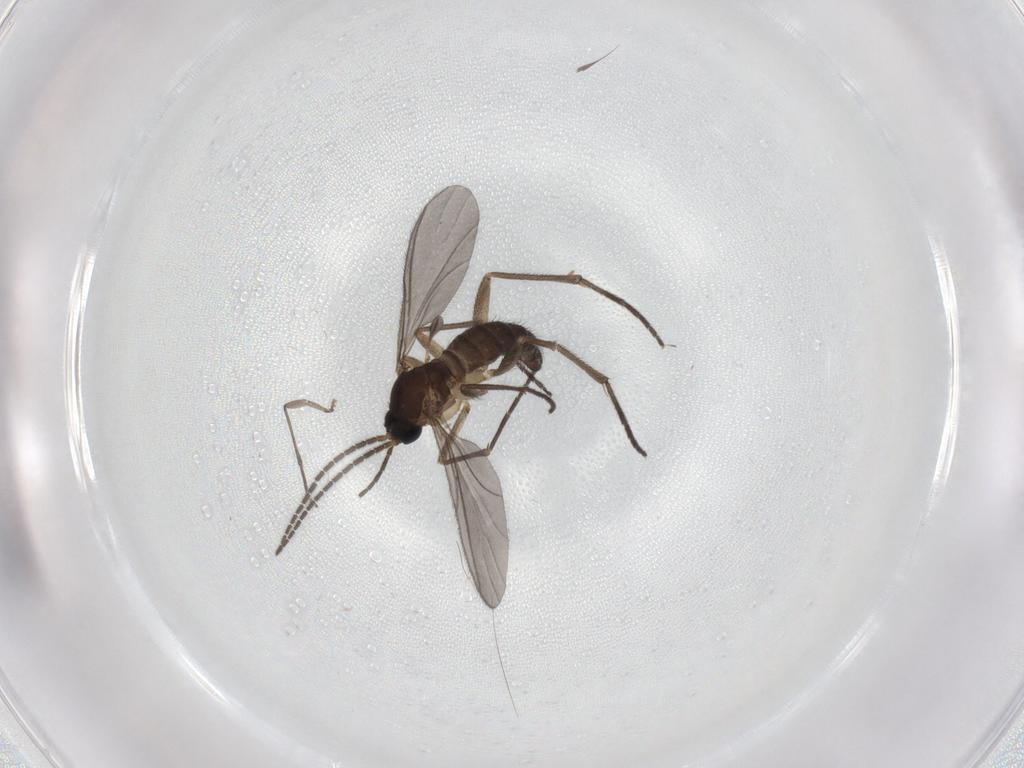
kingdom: Animalia
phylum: Arthropoda
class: Insecta
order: Diptera
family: Sciaridae
